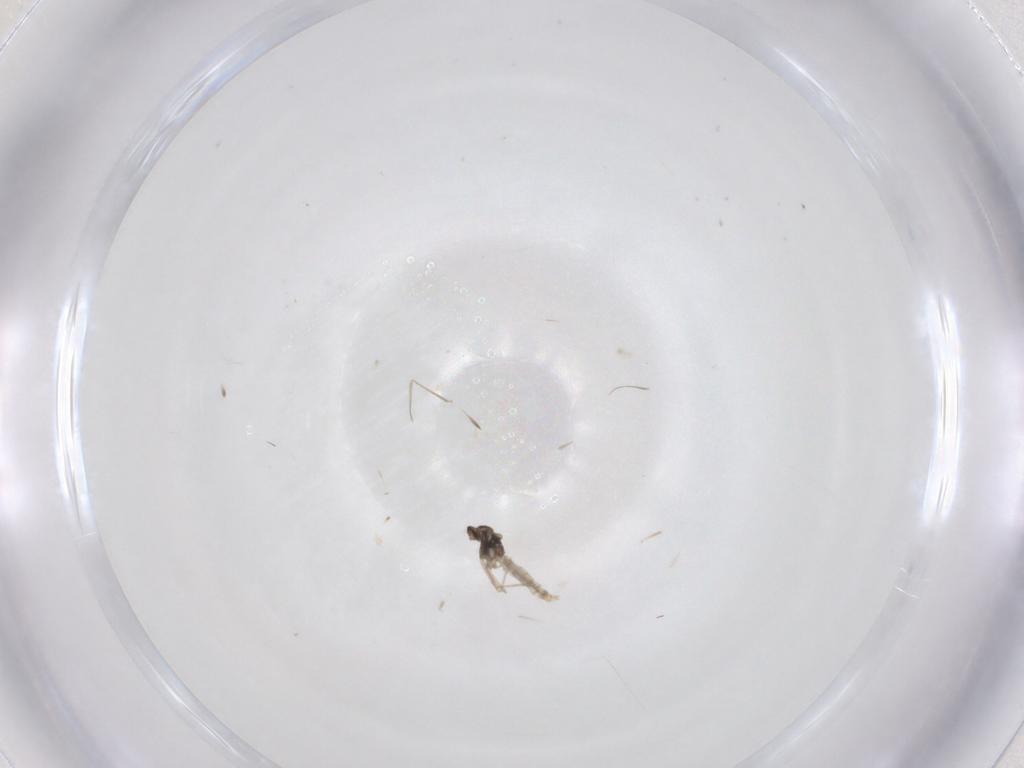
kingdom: Animalia
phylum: Arthropoda
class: Insecta
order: Diptera
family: Cecidomyiidae
